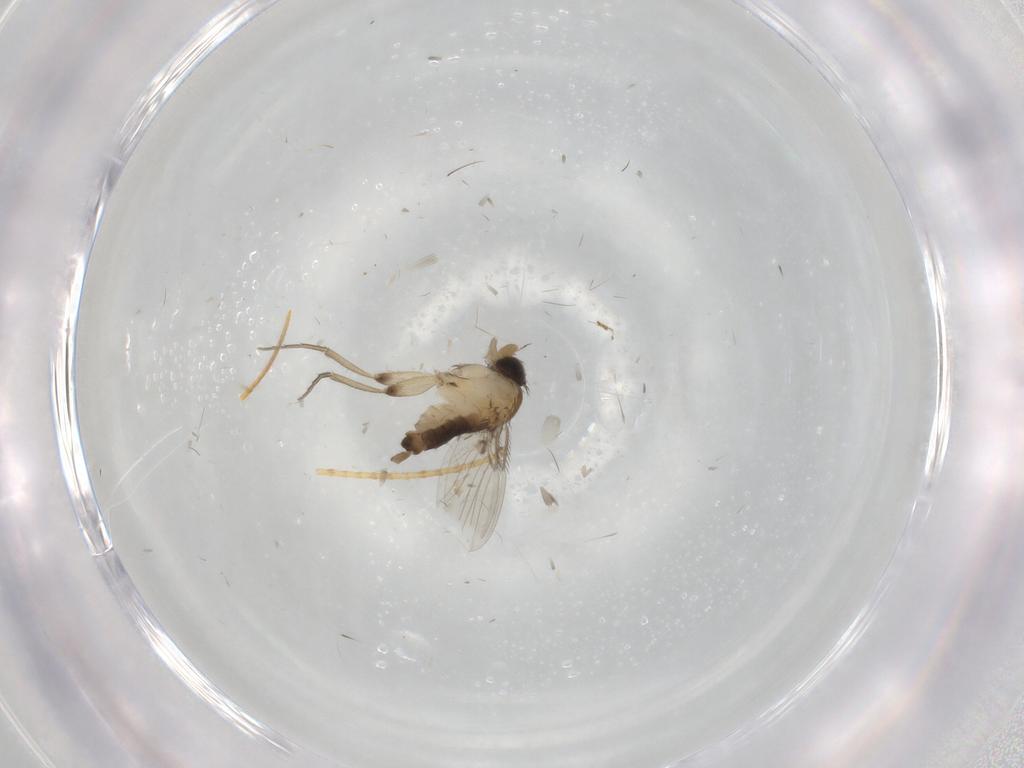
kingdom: Animalia
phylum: Arthropoda
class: Insecta
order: Diptera
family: Phoridae
